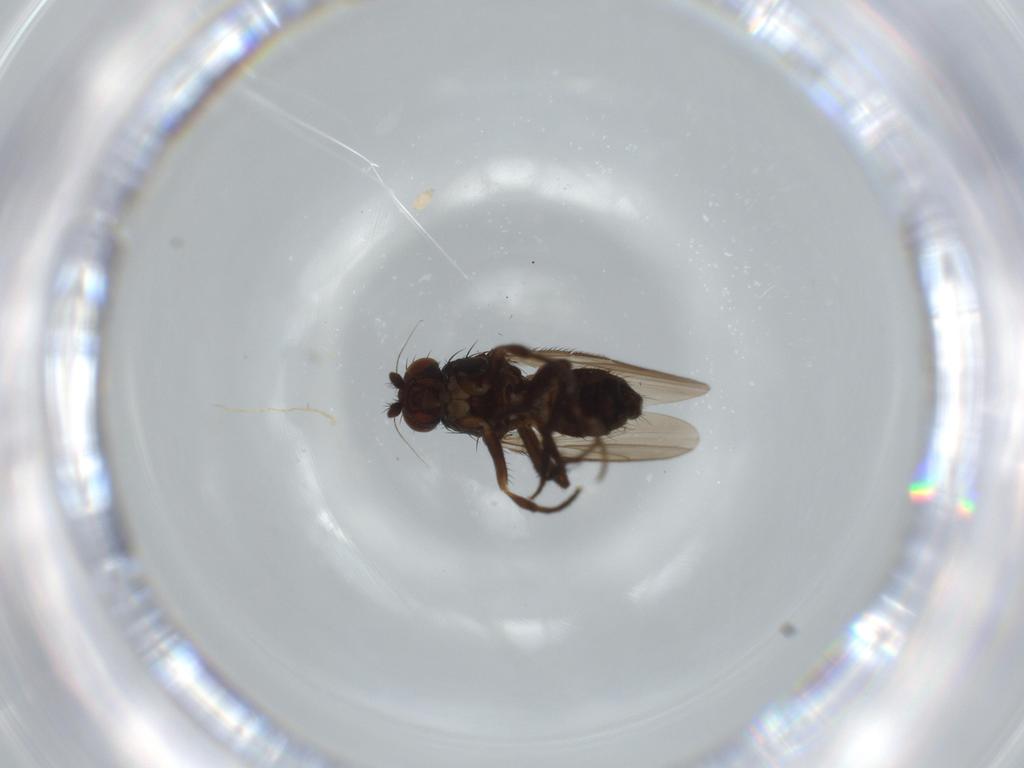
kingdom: Animalia
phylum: Arthropoda
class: Insecta
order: Diptera
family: Sphaeroceridae
